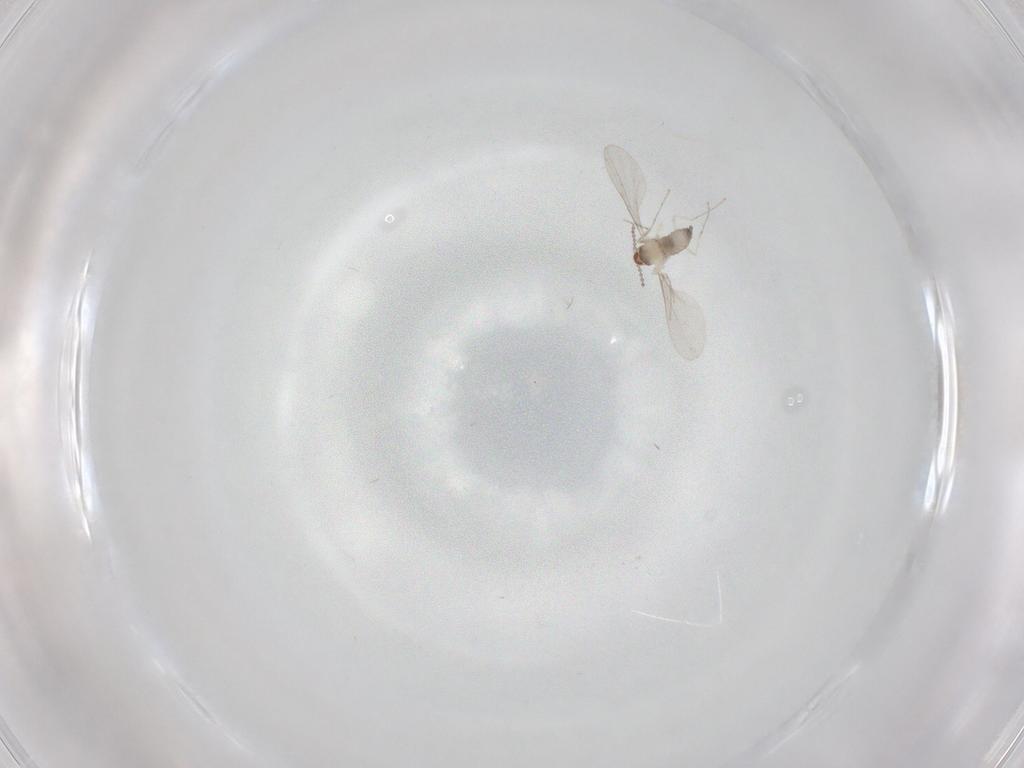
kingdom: Animalia
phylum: Arthropoda
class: Insecta
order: Diptera
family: Cecidomyiidae
